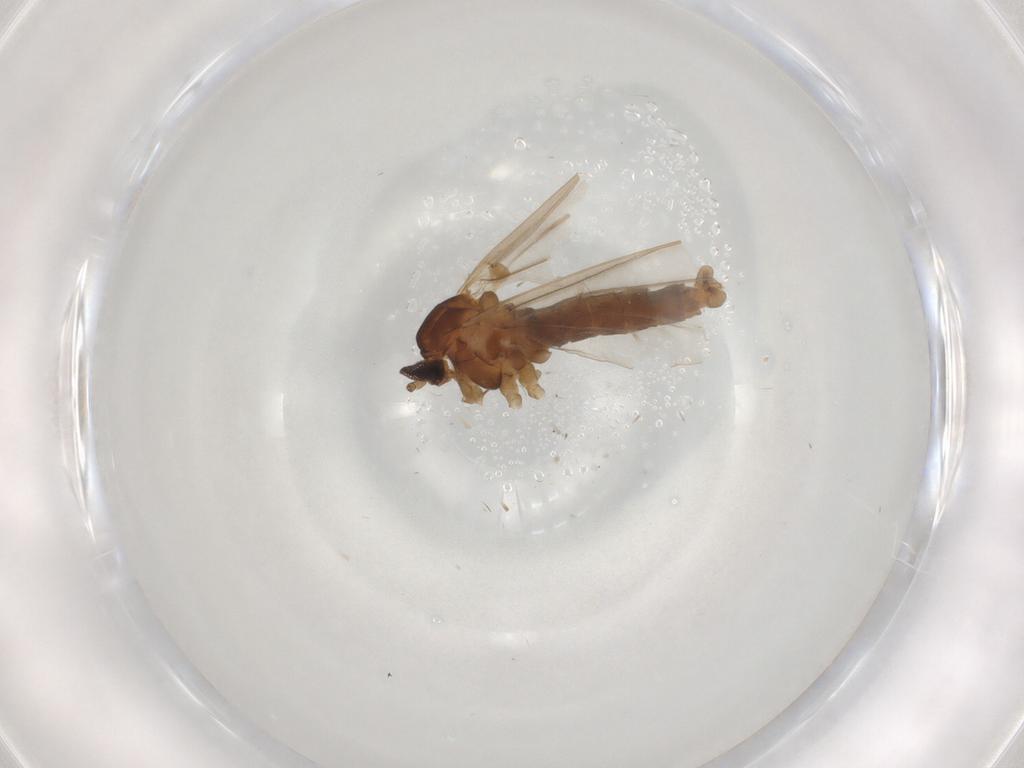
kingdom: Animalia
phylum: Arthropoda
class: Insecta
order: Diptera
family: Cecidomyiidae
